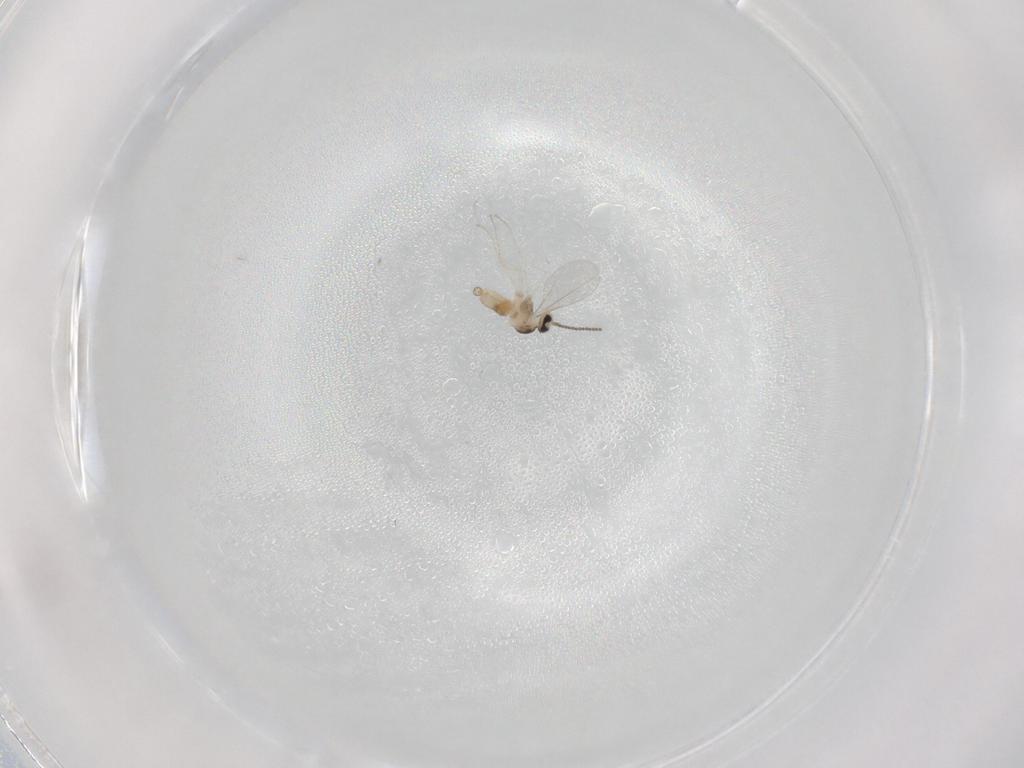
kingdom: Animalia
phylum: Arthropoda
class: Insecta
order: Diptera
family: Cecidomyiidae
